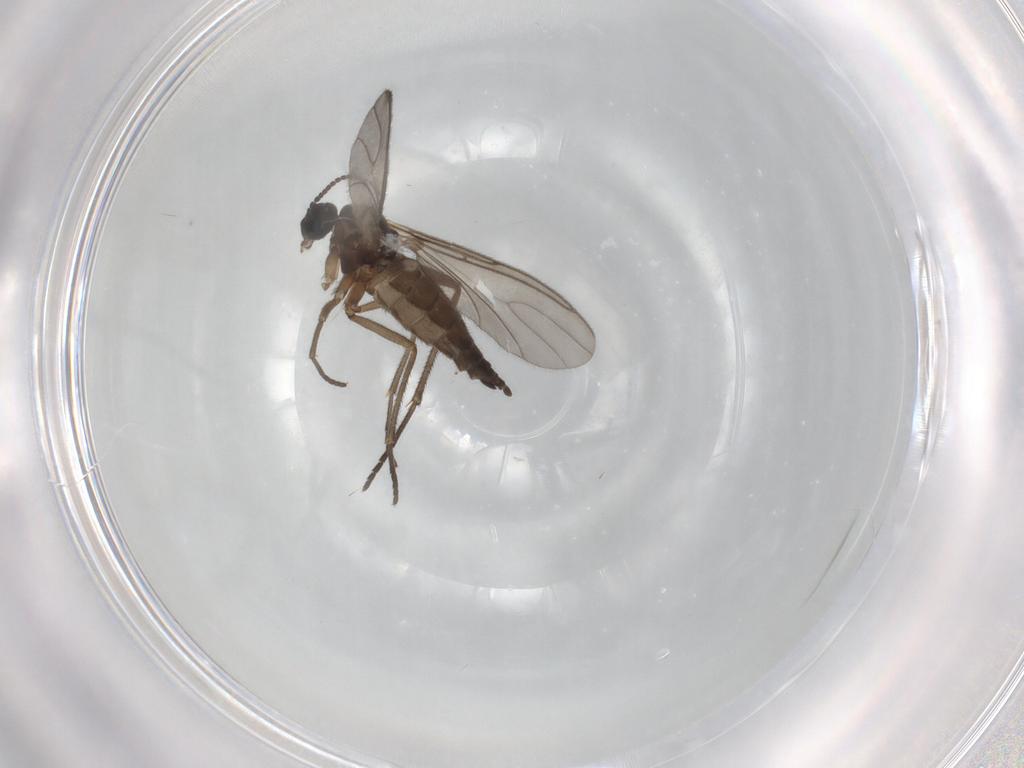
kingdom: Animalia
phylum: Arthropoda
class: Insecta
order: Diptera
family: Sciaridae
